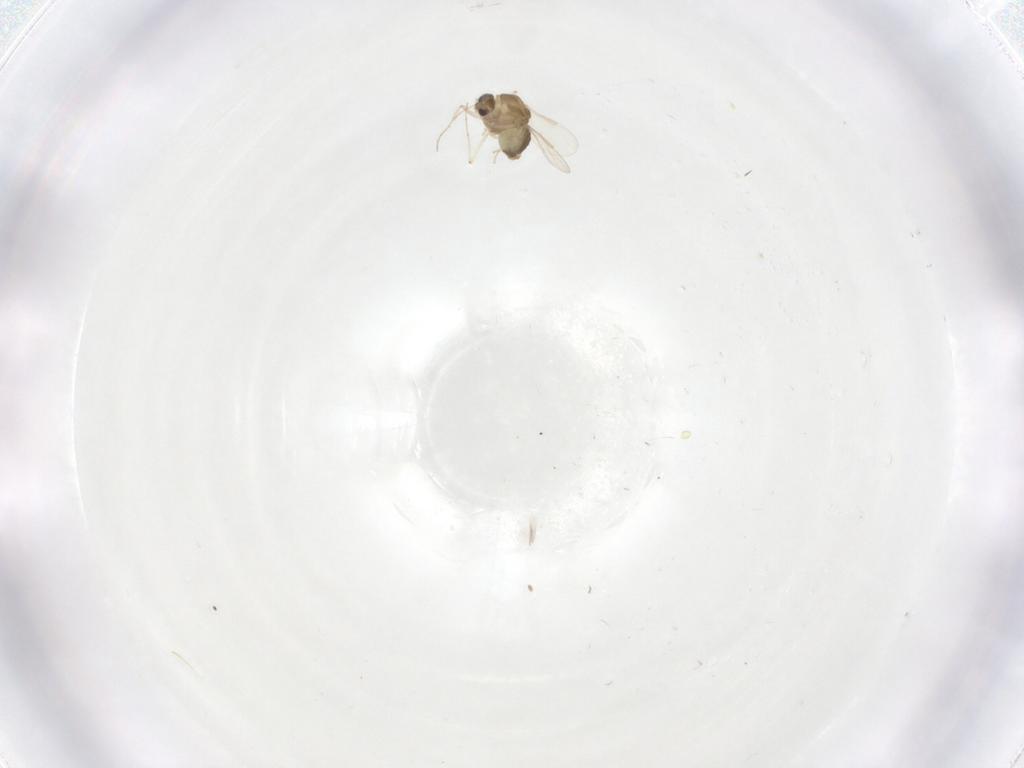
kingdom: Animalia
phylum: Arthropoda
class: Insecta
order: Diptera
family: Chironomidae
